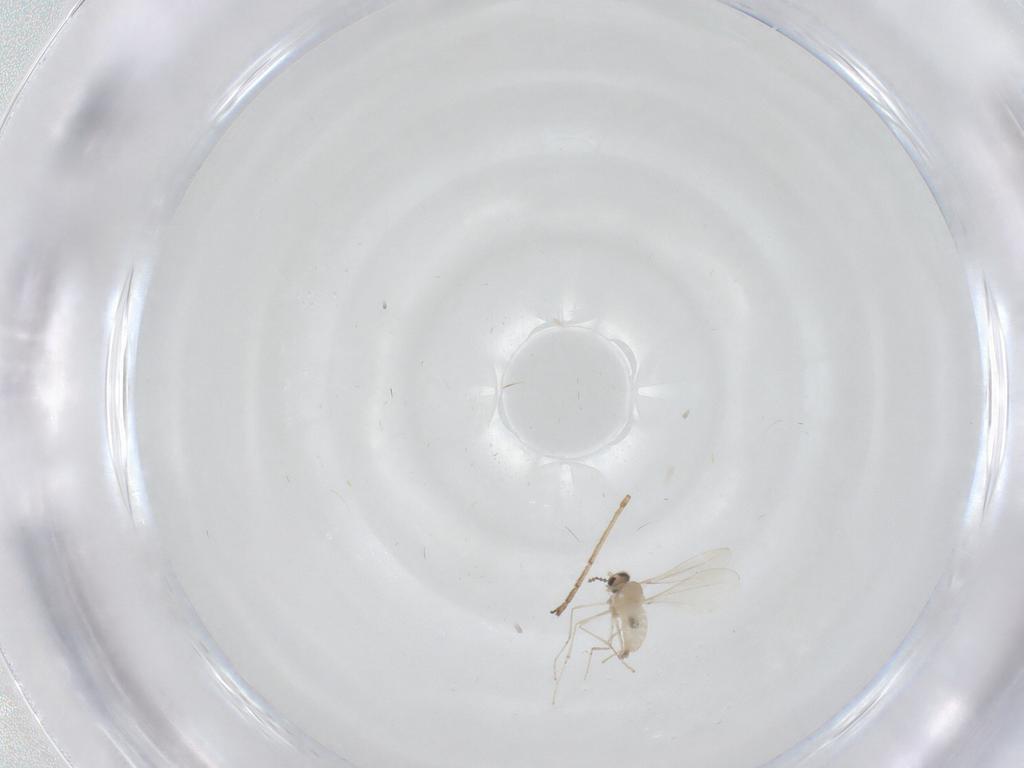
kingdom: Animalia
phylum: Arthropoda
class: Insecta
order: Diptera
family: Cecidomyiidae
